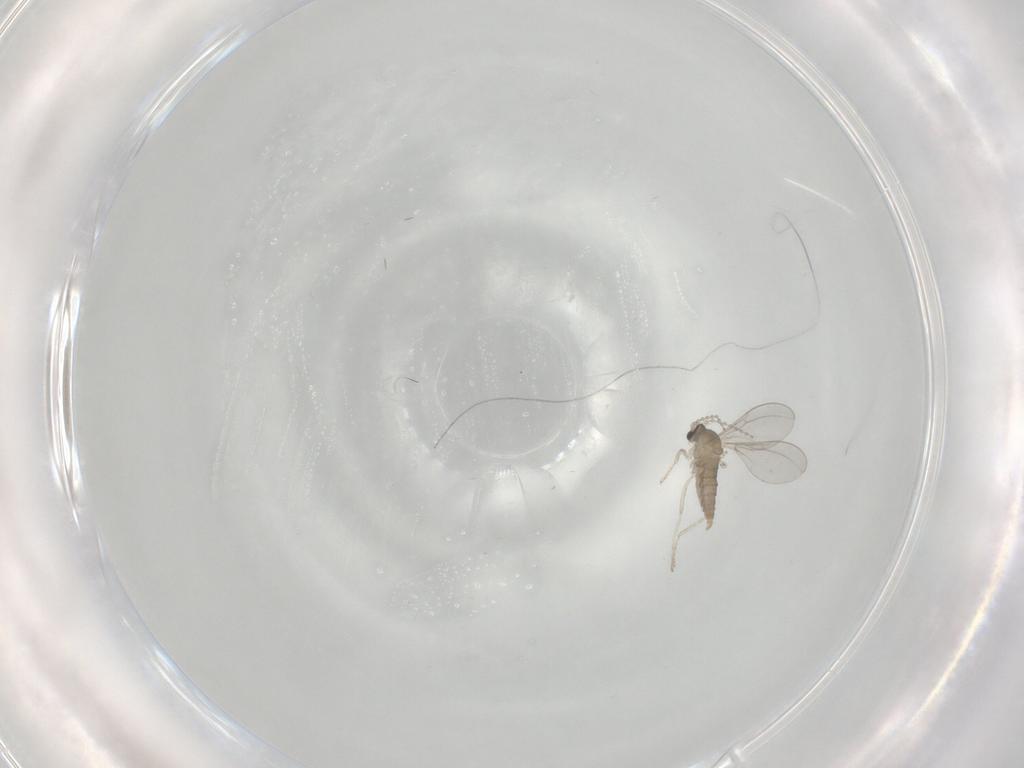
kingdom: Animalia
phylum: Arthropoda
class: Insecta
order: Diptera
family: Cecidomyiidae
